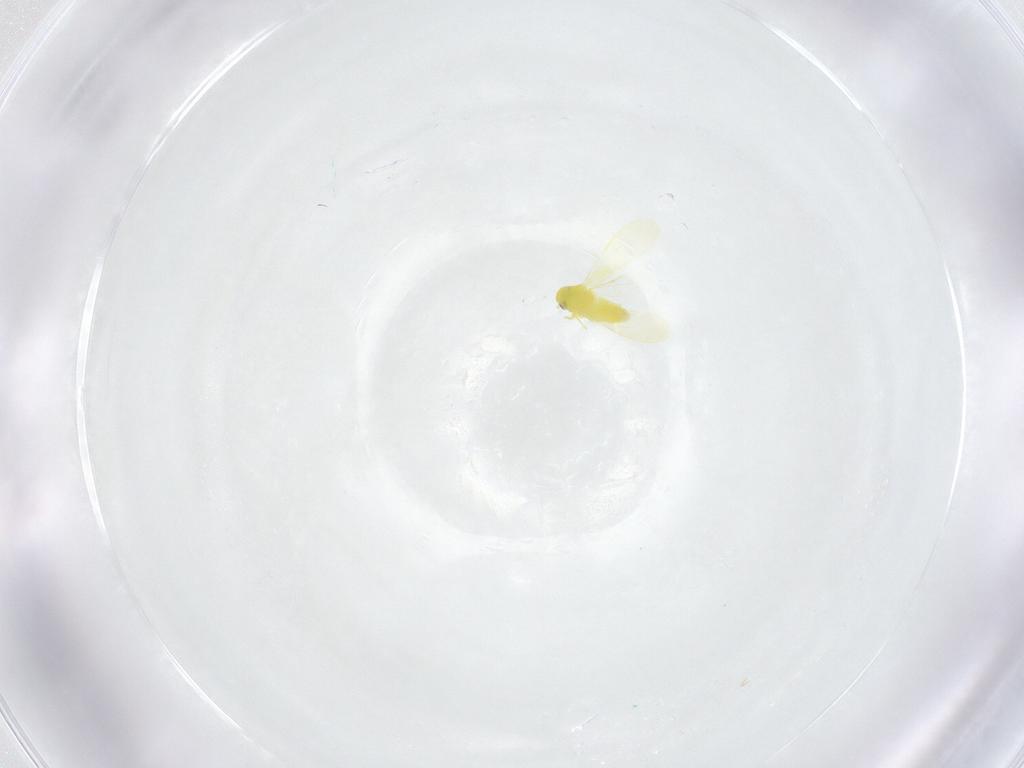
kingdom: Animalia
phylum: Arthropoda
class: Insecta
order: Hemiptera
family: Aleyrodidae
